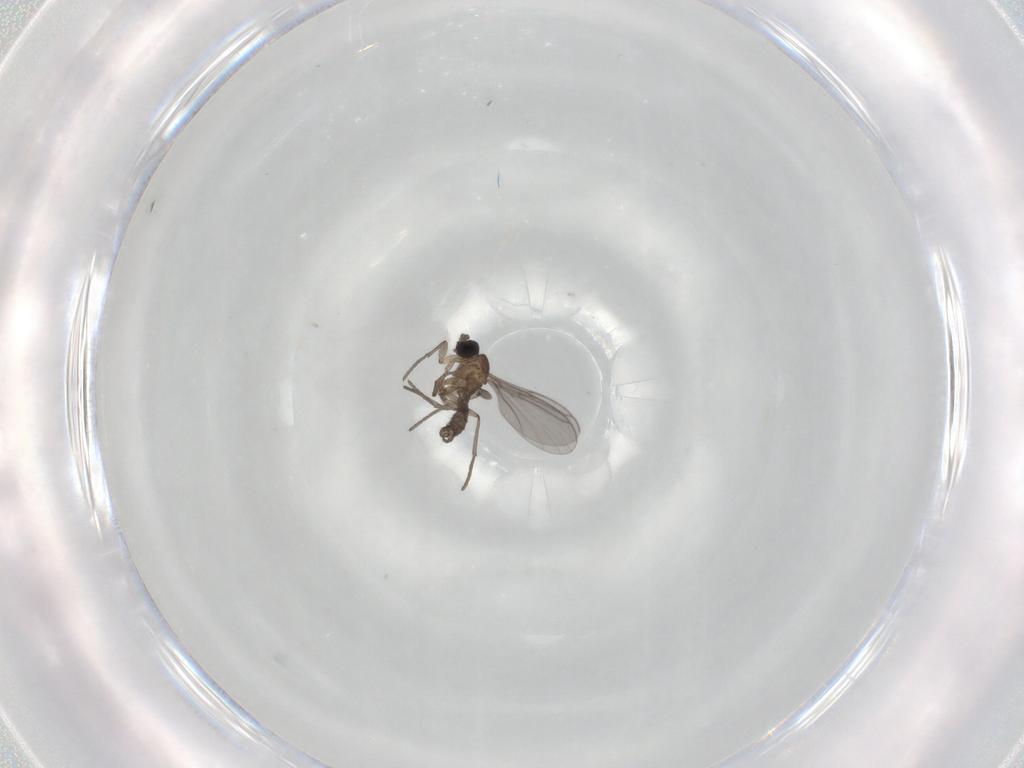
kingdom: Animalia
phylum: Arthropoda
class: Insecta
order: Diptera
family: Phoridae
